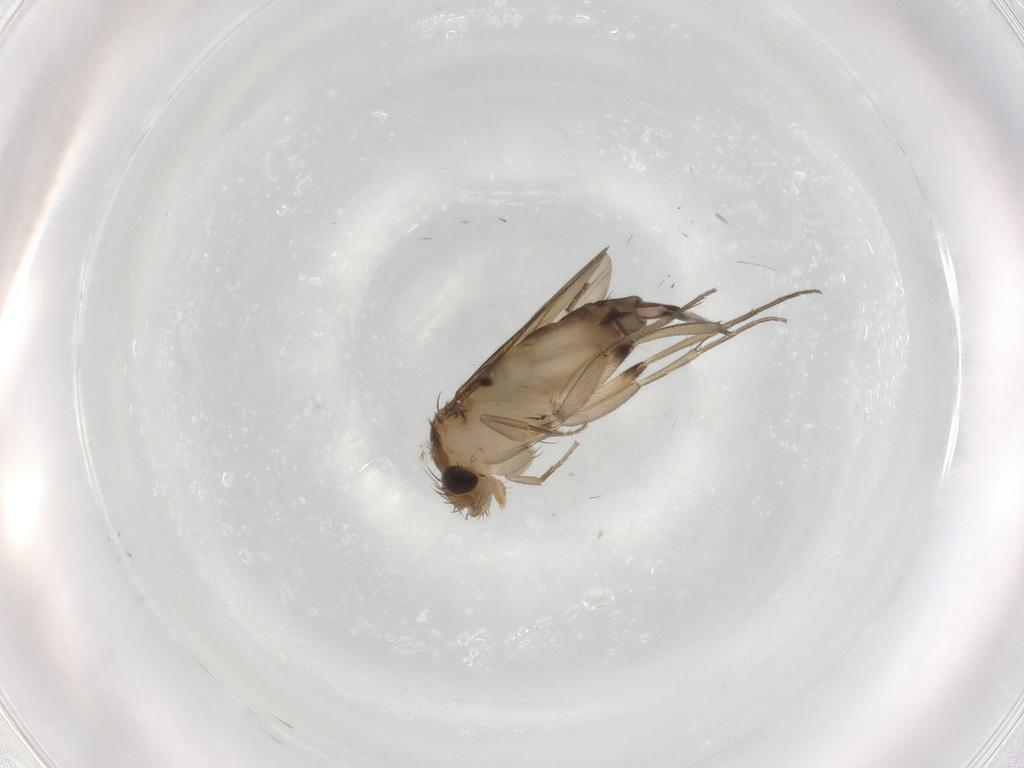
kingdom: Animalia
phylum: Arthropoda
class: Insecta
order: Diptera
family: Phoridae
